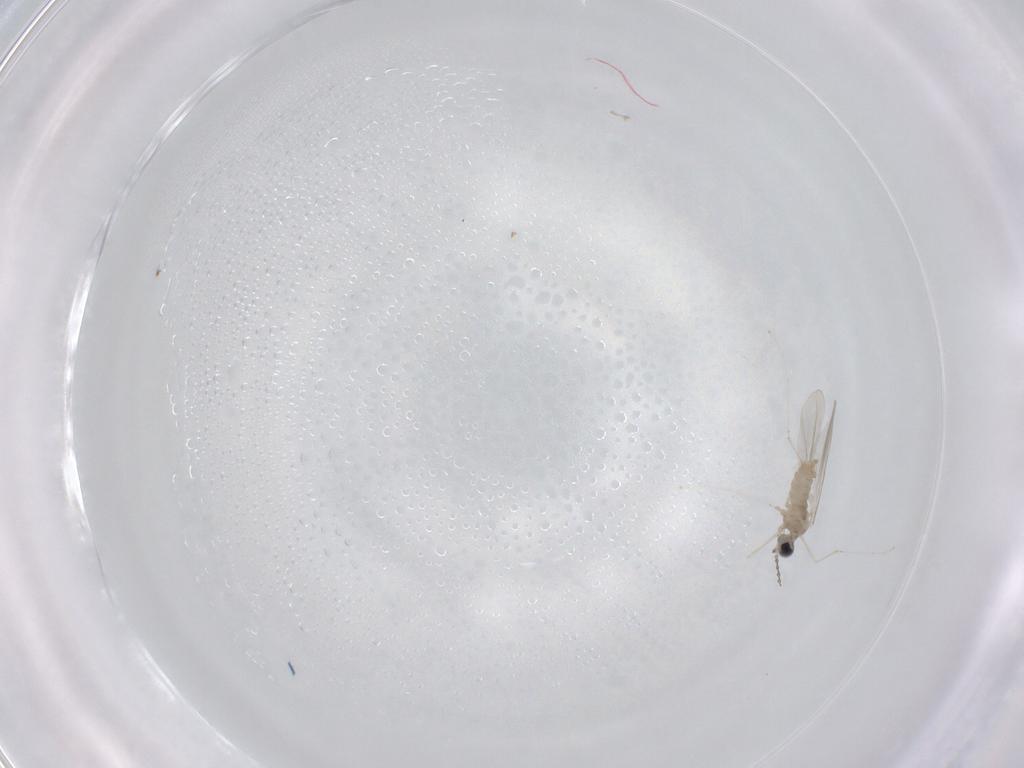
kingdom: Animalia
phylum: Arthropoda
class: Insecta
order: Diptera
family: Cecidomyiidae
